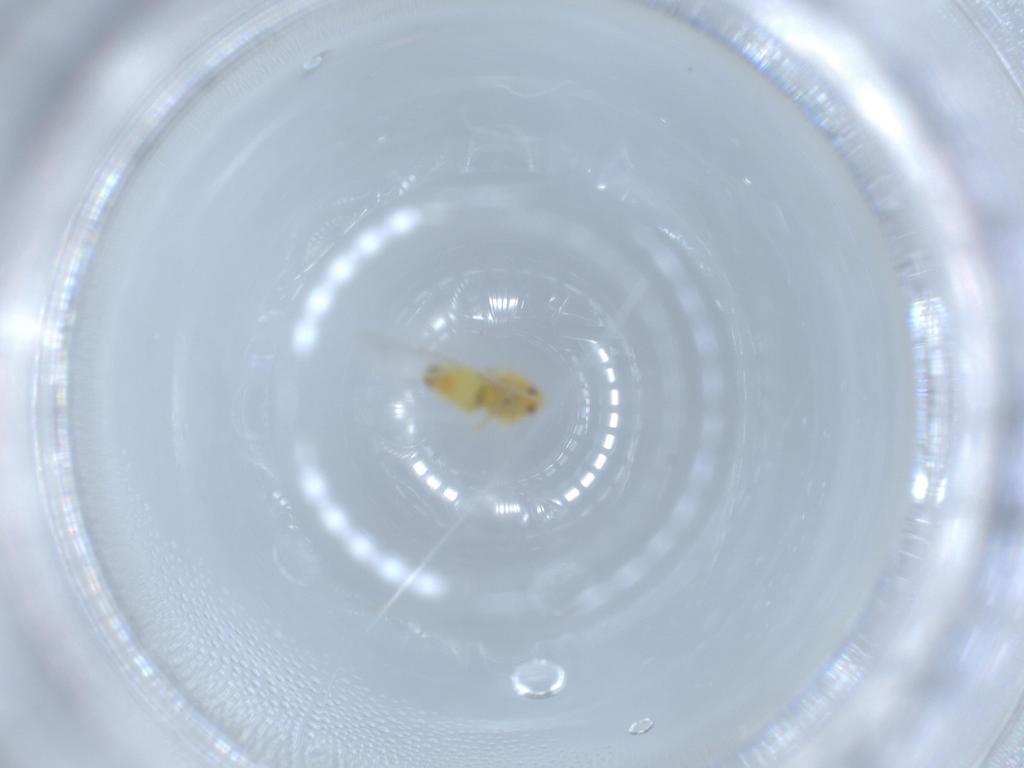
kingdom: Animalia
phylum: Arthropoda
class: Insecta
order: Hemiptera
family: Aleyrodidae
